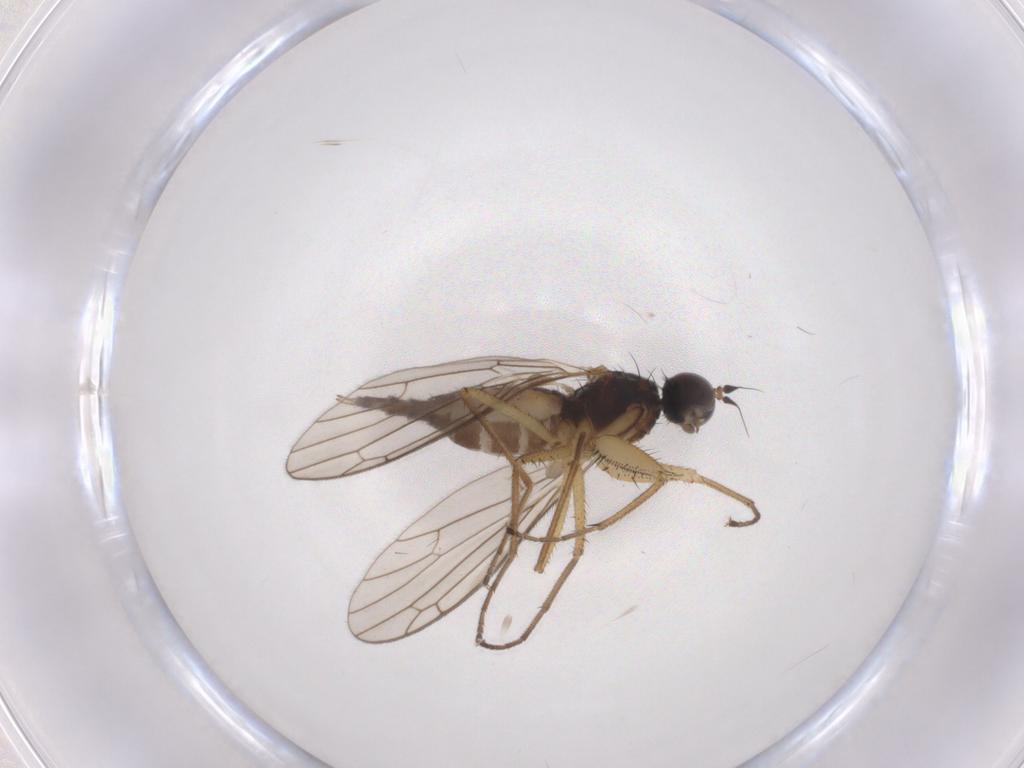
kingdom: Animalia
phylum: Arthropoda
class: Insecta
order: Diptera
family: Empididae
